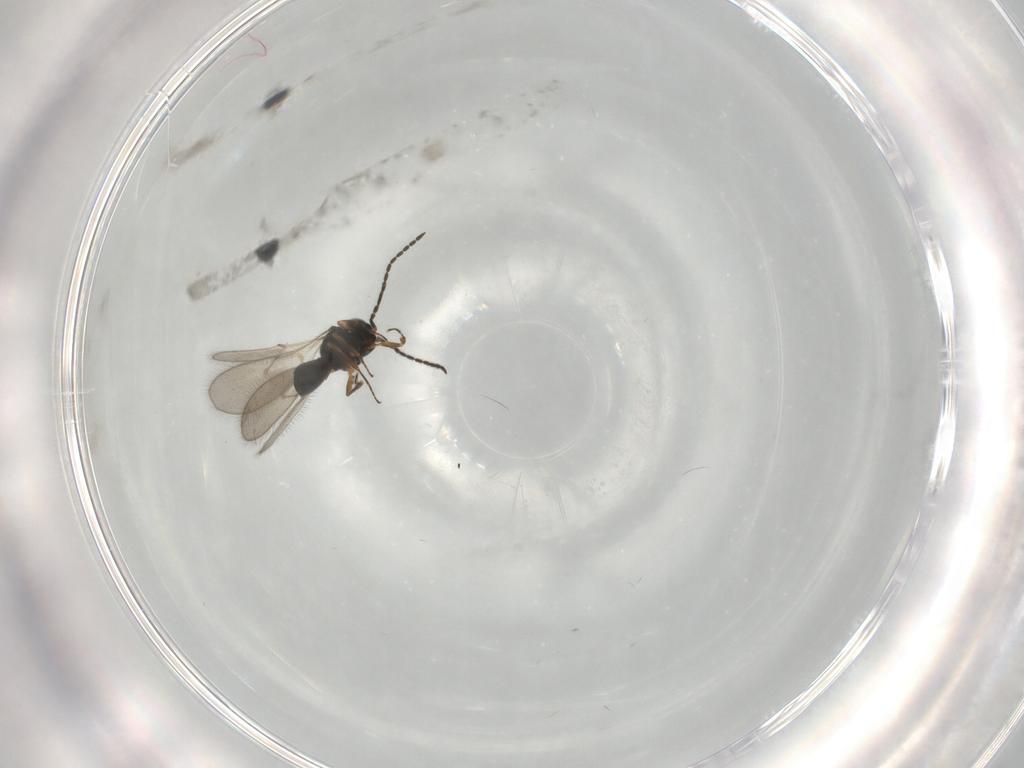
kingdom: Animalia
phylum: Arthropoda
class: Insecta
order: Hymenoptera
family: Scelionidae
